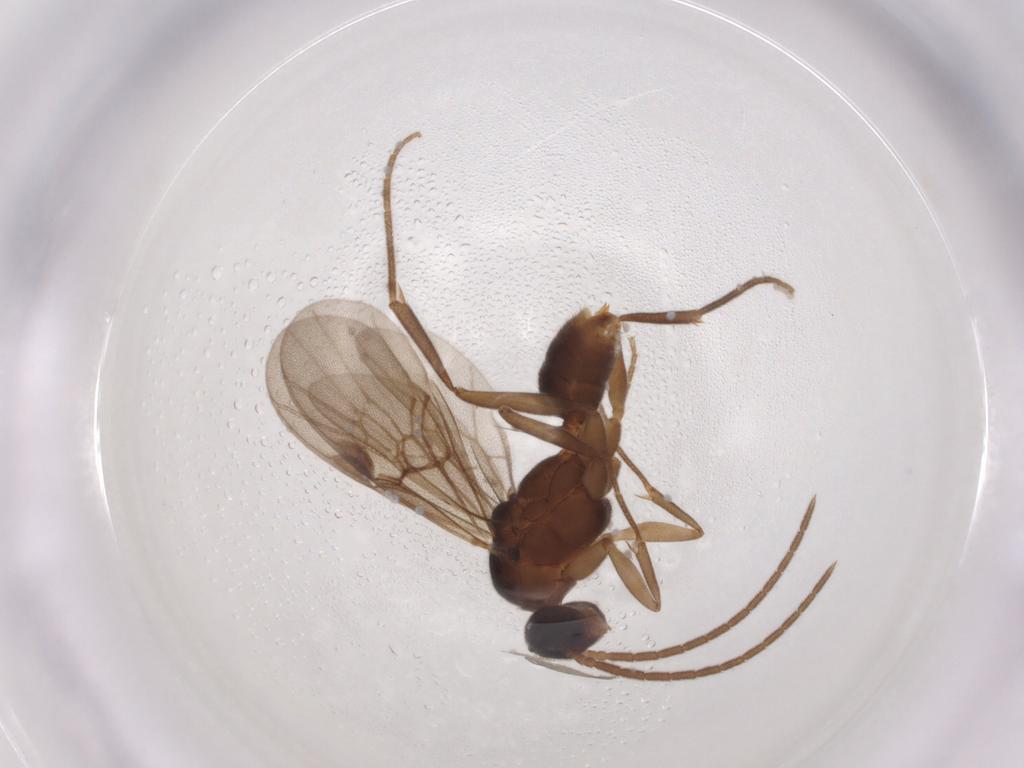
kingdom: Animalia
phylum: Arthropoda
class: Insecta
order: Hymenoptera
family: Formicidae
